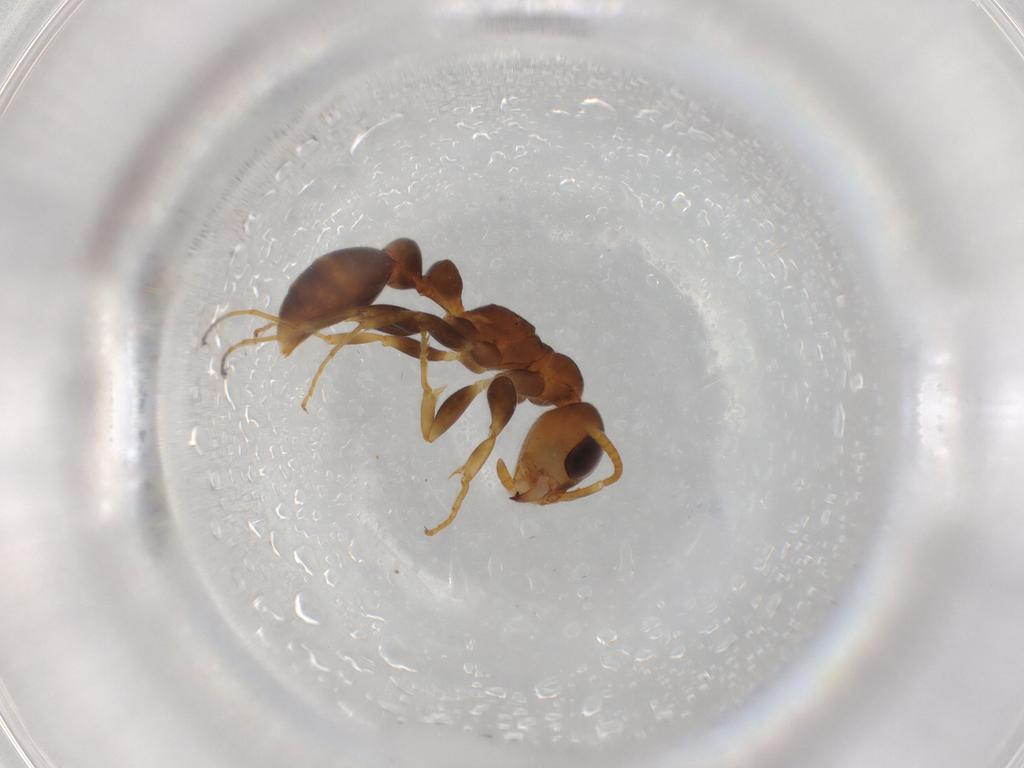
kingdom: Animalia
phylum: Arthropoda
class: Insecta
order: Hymenoptera
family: Formicidae
